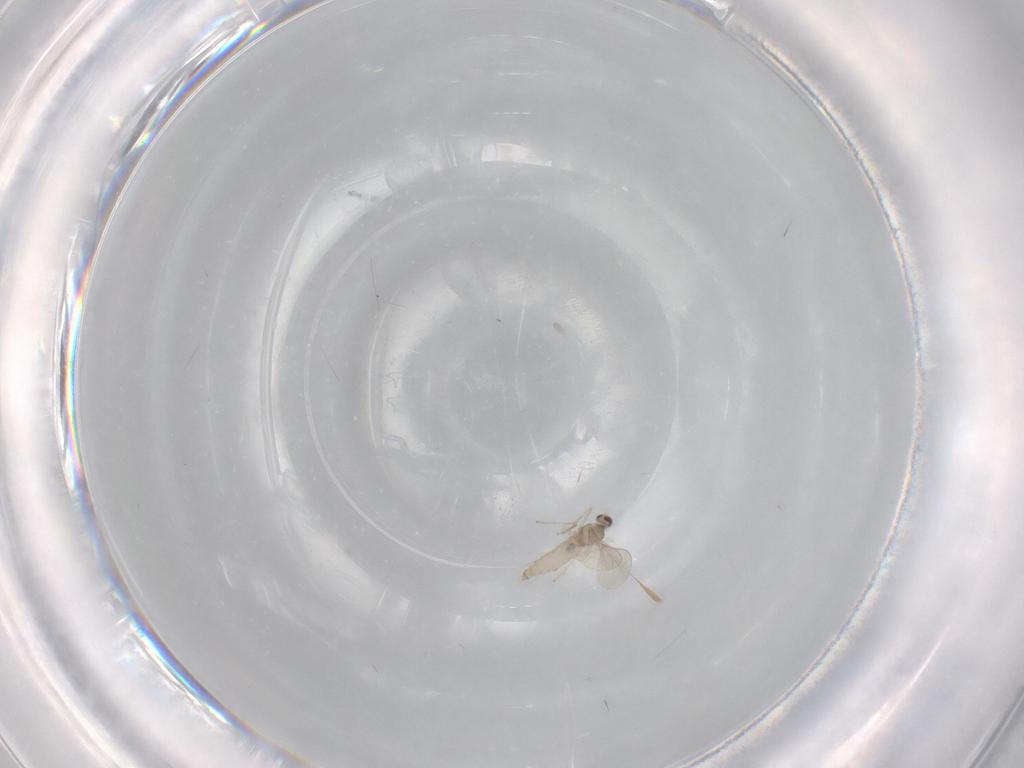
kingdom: Animalia
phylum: Arthropoda
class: Insecta
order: Diptera
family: Cecidomyiidae
